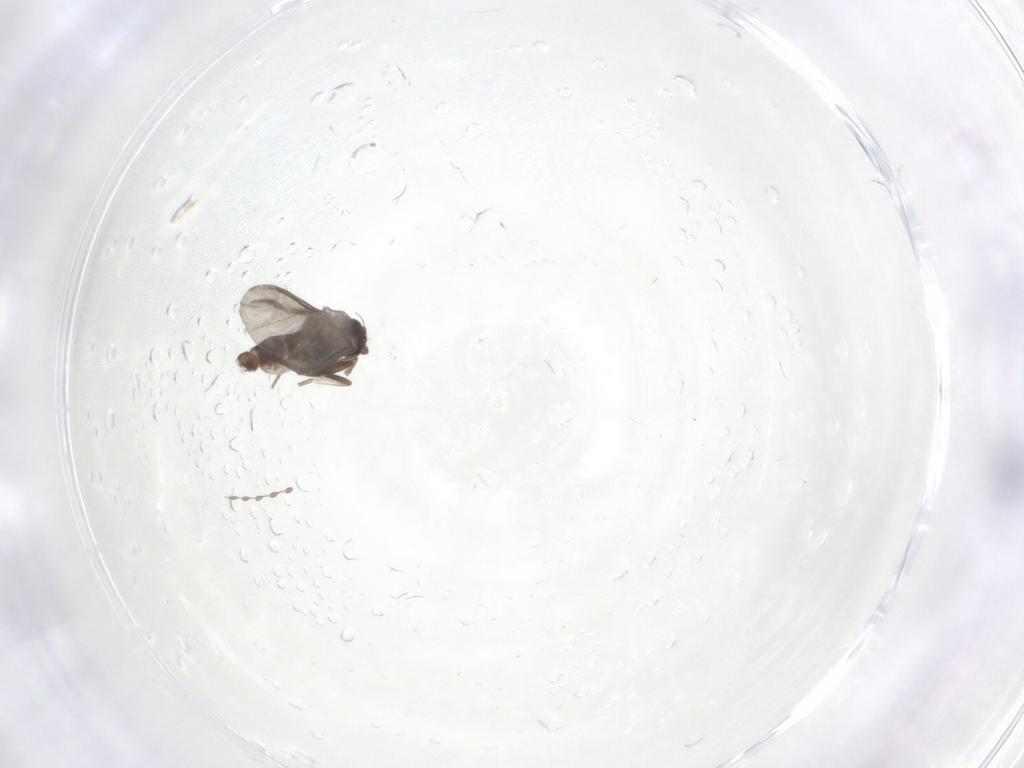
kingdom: Animalia
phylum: Arthropoda
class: Insecta
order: Diptera
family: Phoridae
